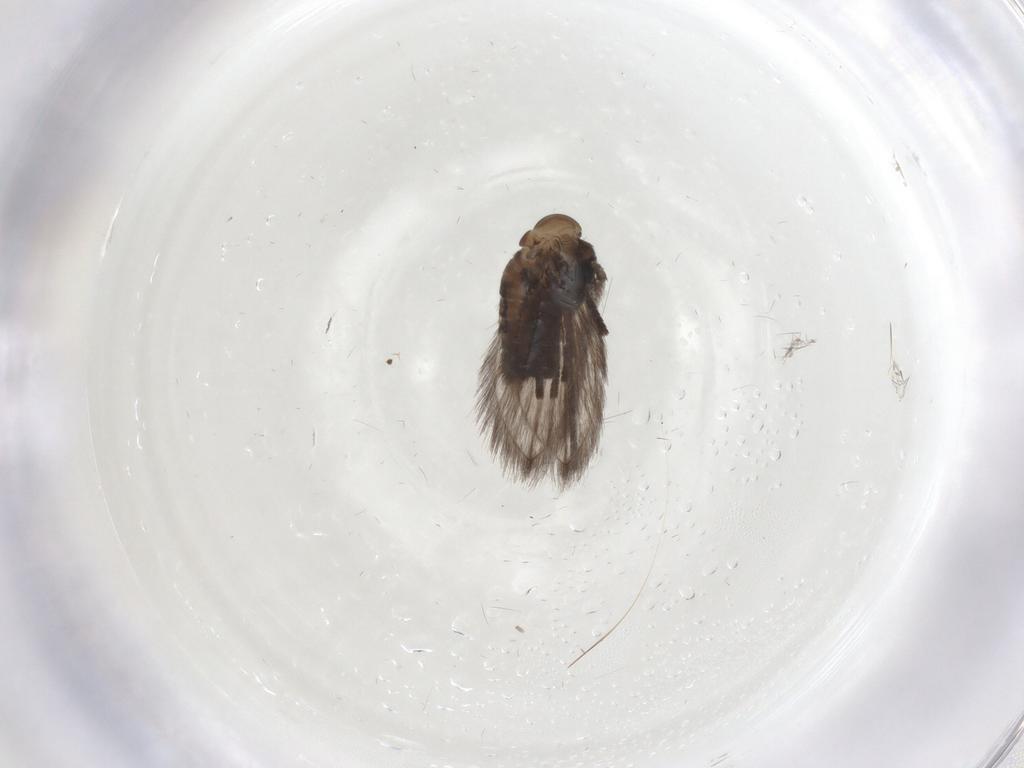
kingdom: Animalia
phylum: Arthropoda
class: Insecta
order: Diptera
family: Psychodidae
